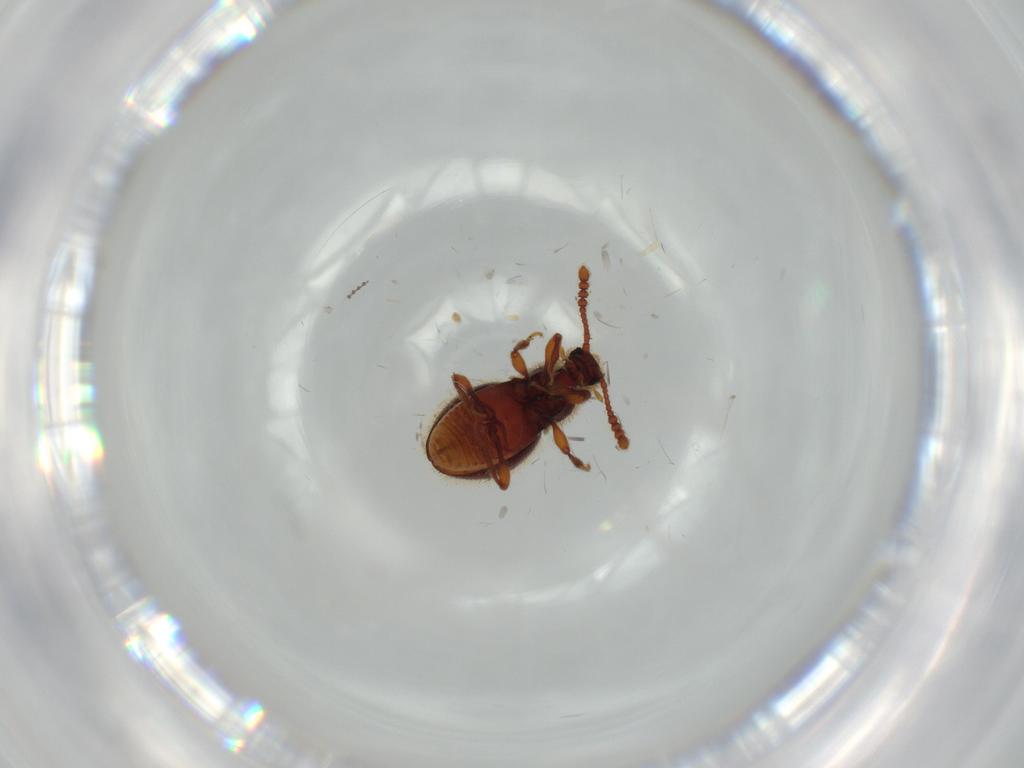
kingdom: Animalia
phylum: Arthropoda
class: Insecta
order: Diptera
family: Cecidomyiidae
